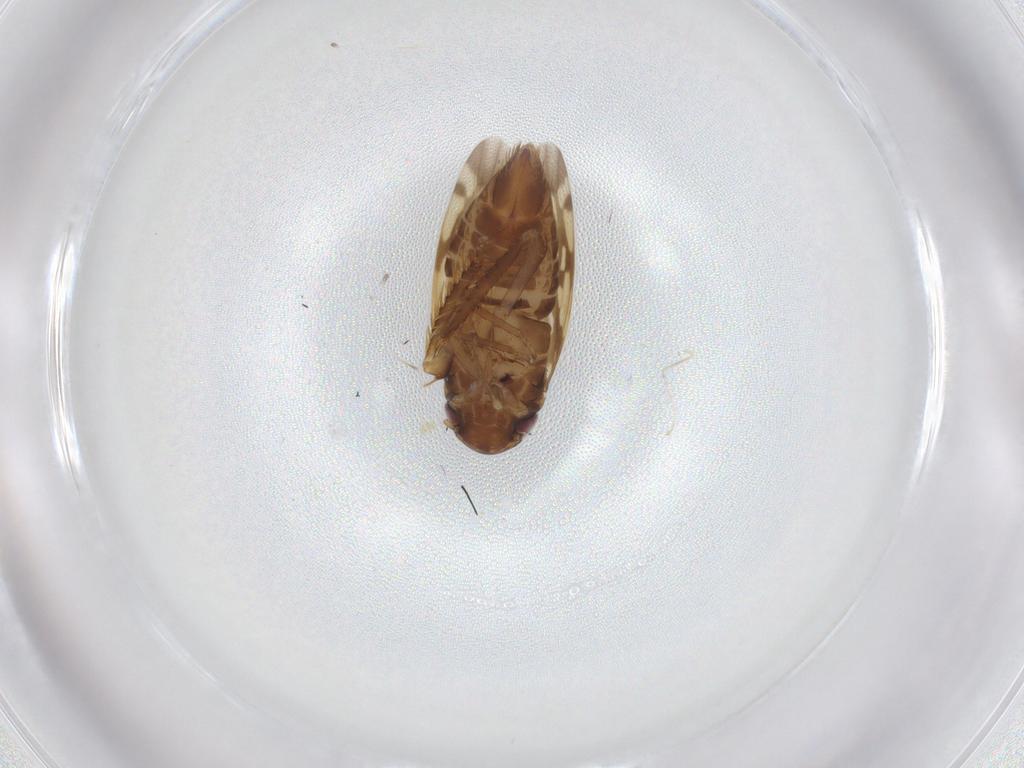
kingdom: Animalia
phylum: Arthropoda
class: Insecta
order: Hemiptera
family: Cicadellidae
